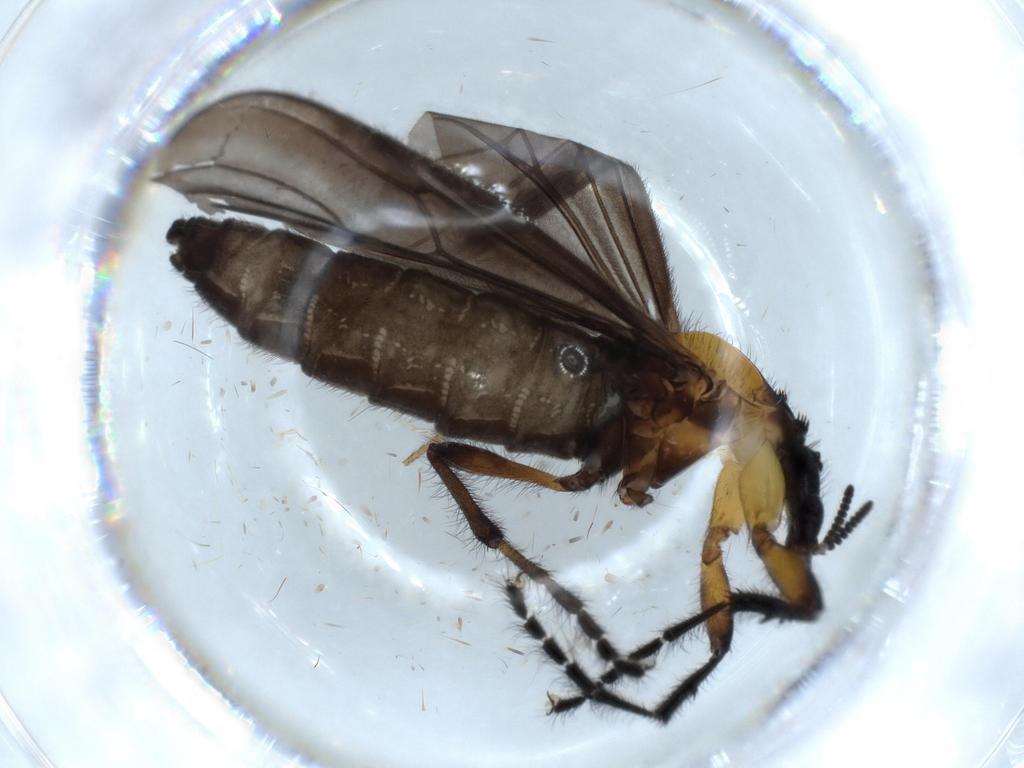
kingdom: Animalia
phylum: Arthropoda
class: Insecta
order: Diptera
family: Bibionidae
